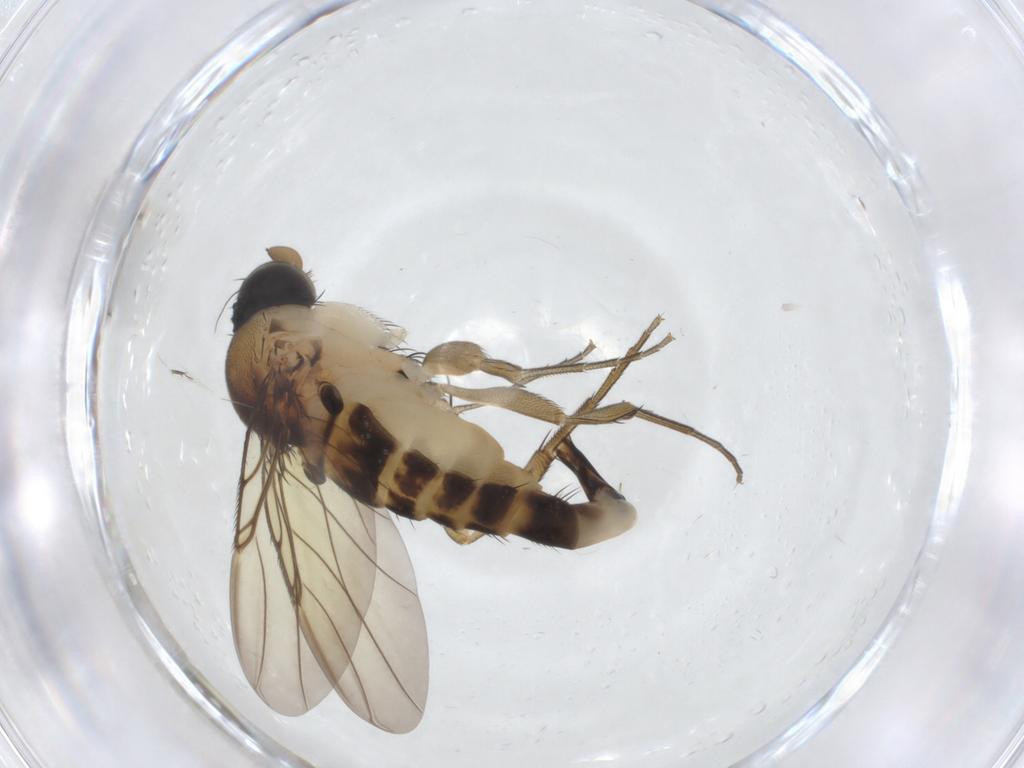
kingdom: Animalia
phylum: Arthropoda
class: Insecta
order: Diptera
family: Phoridae
